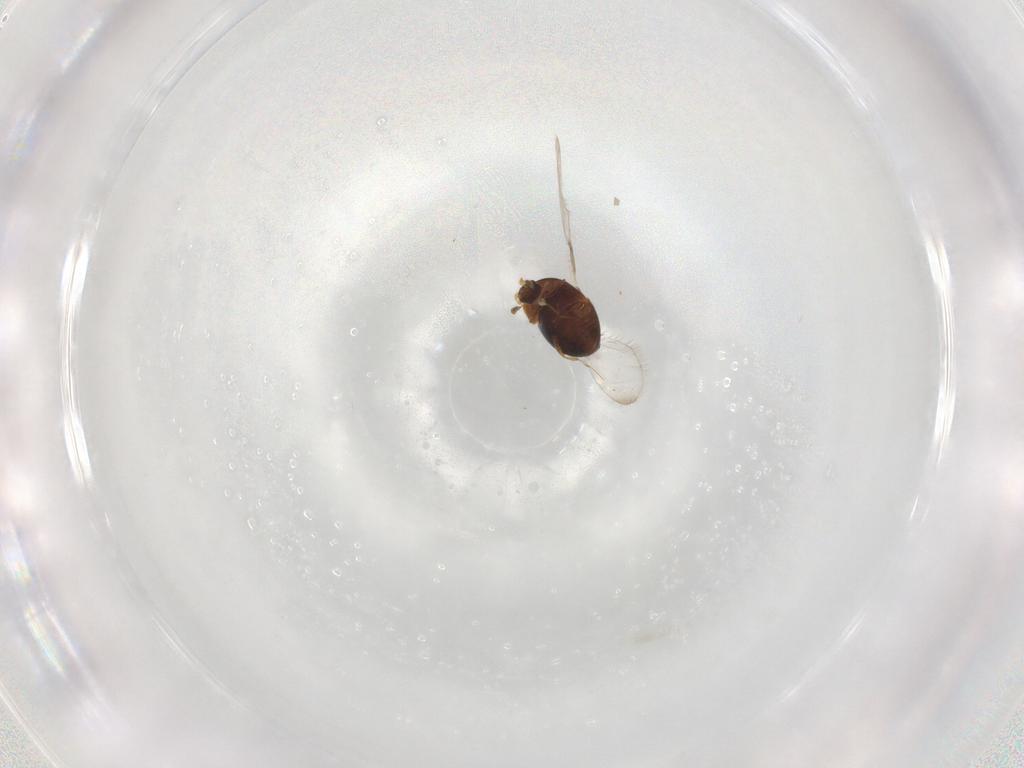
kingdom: Animalia
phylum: Arthropoda
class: Insecta
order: Coleoptera
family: Corylophidae
